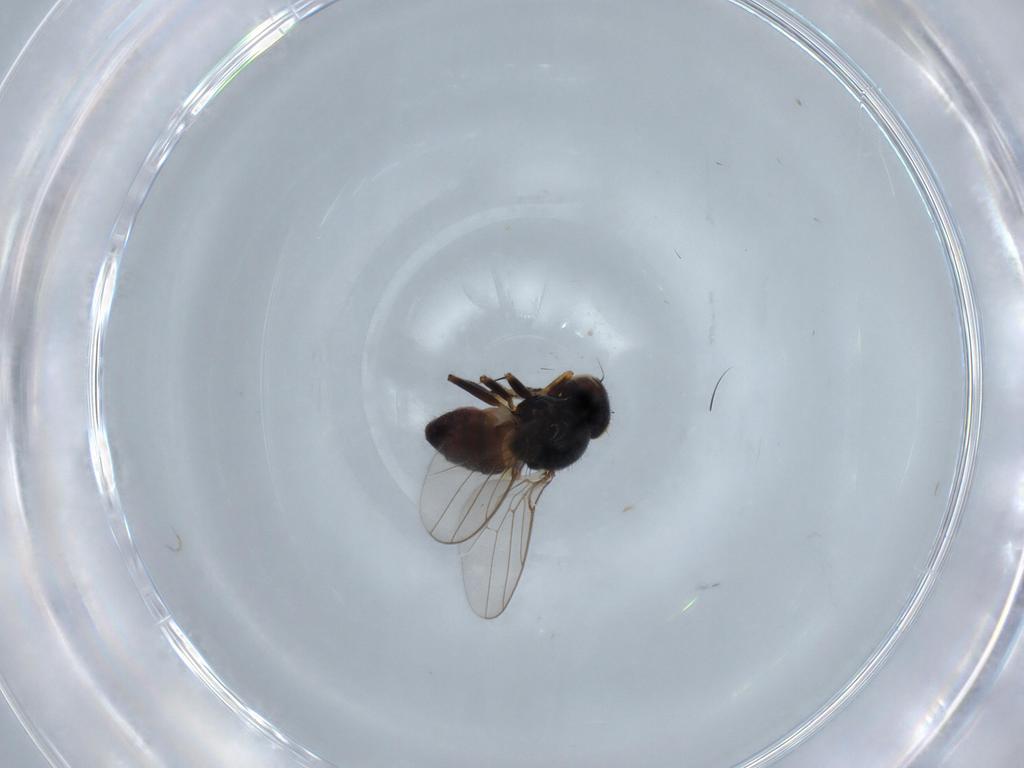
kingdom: Animalia
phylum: Arthropoda
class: Insecta
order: Diptera
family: Chloropidae
